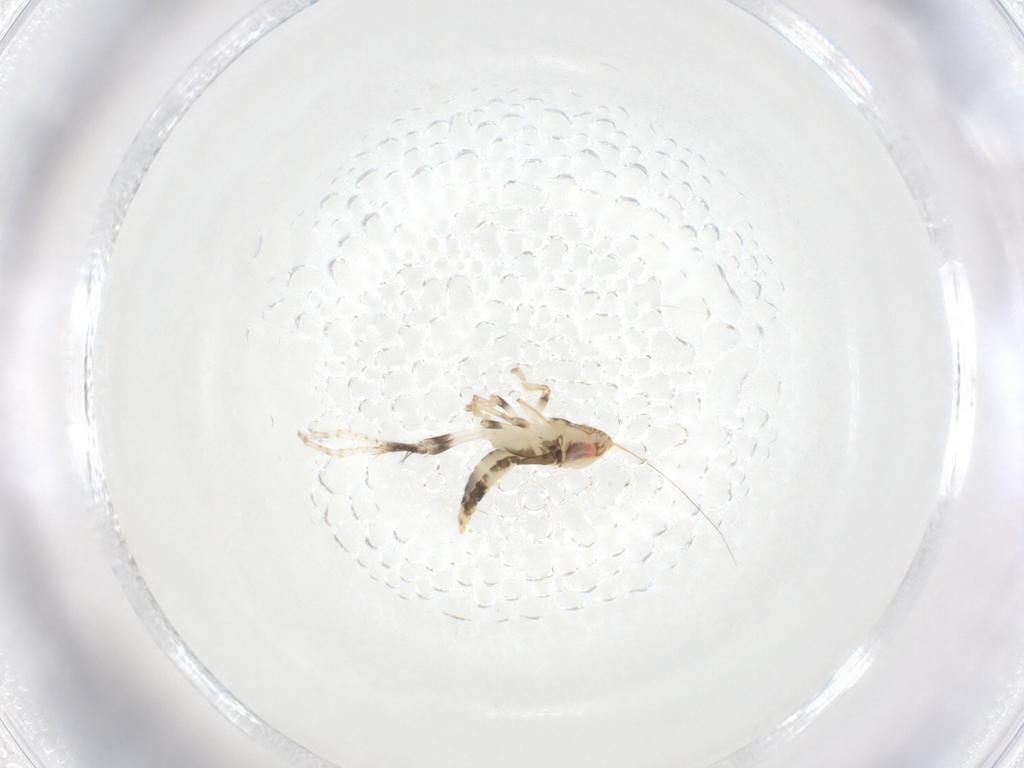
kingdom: Animalia
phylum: Arthropoda
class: Insecta
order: Hemiptera
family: Cicadellidae
